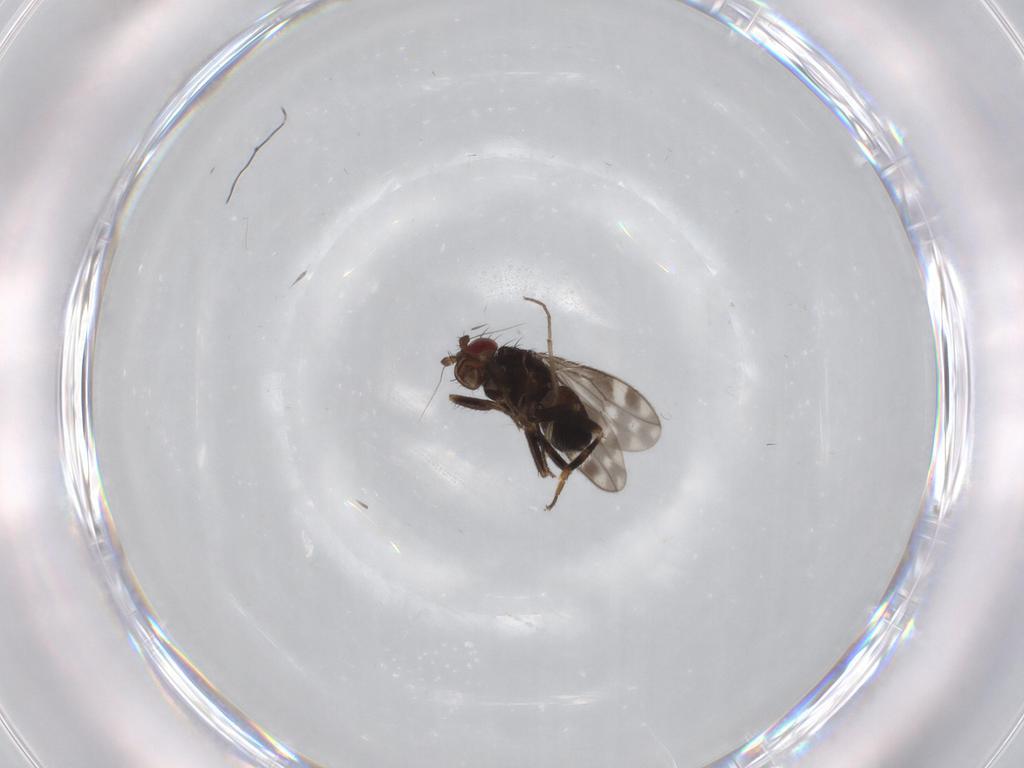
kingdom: Animalia
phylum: Arthropoda
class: Insecta
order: Diptera
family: Sphaeroceridae
